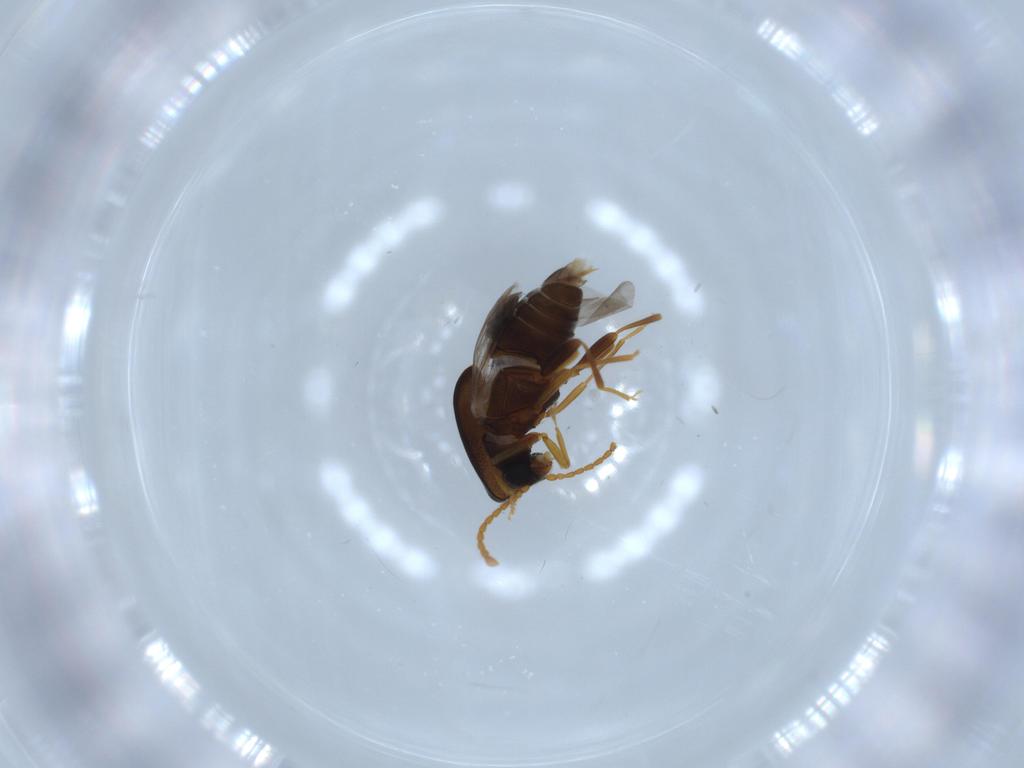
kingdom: Animalia
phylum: Arthropoda
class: Insecta
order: Coleoptera
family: Aderidae
